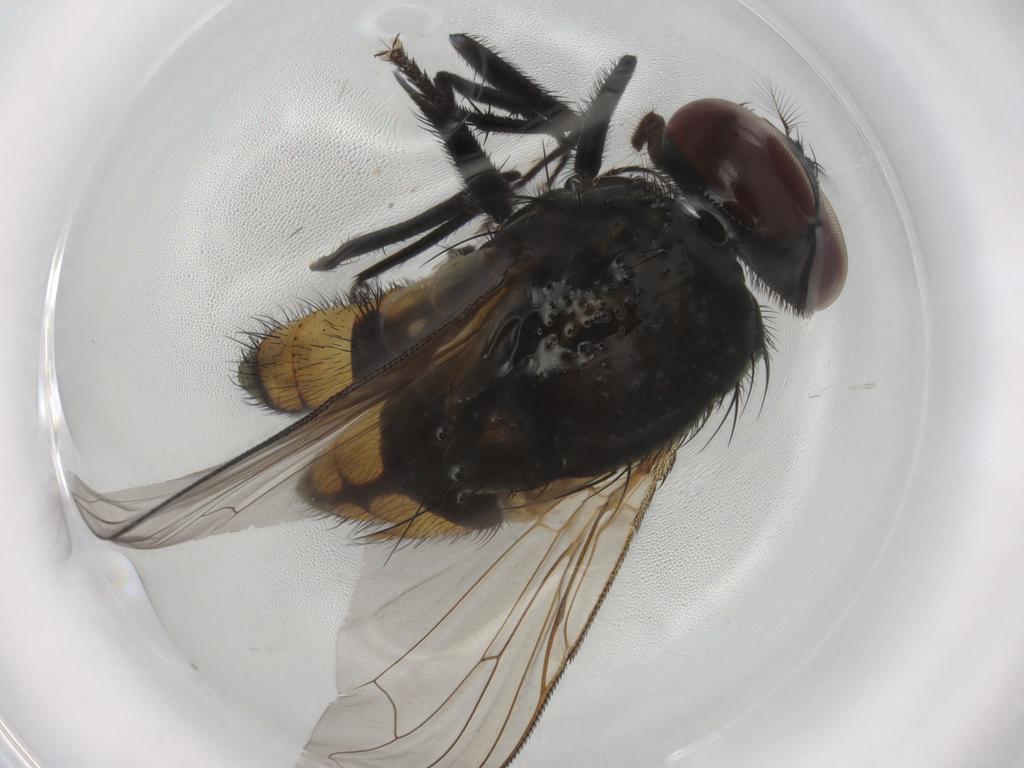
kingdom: Animalia
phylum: Arthropoda
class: Insecta
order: Diptera
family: Muscidae
